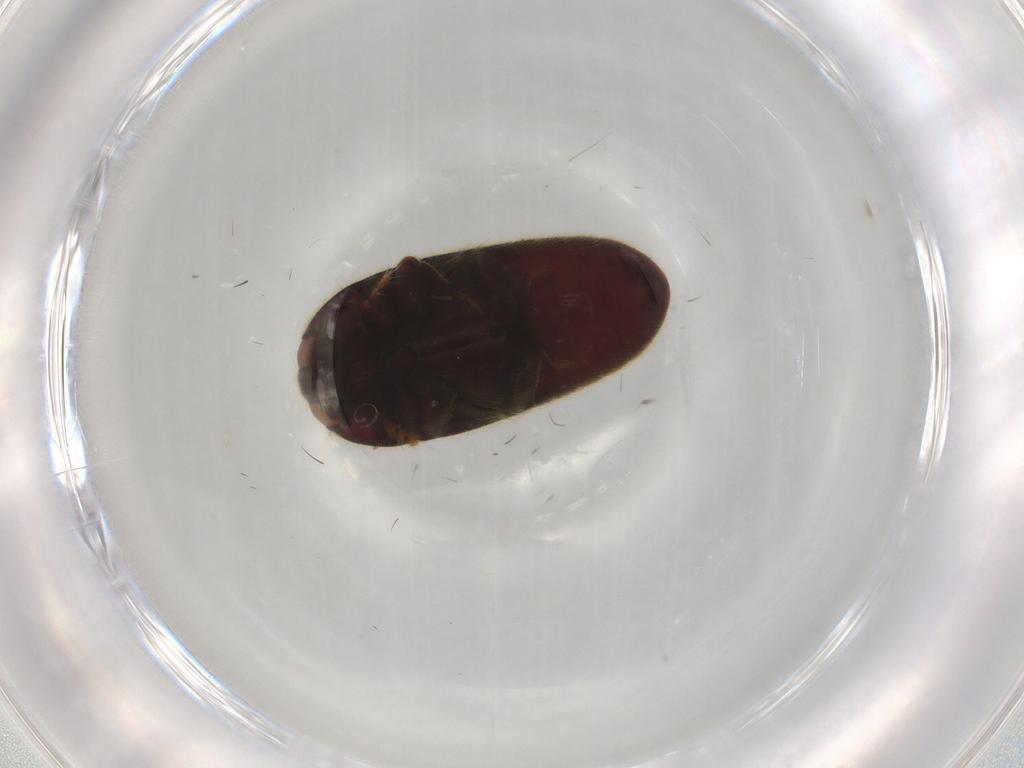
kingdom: Animalia
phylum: Arthropoda
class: Insecta
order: Coleoptera
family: Throscidae
